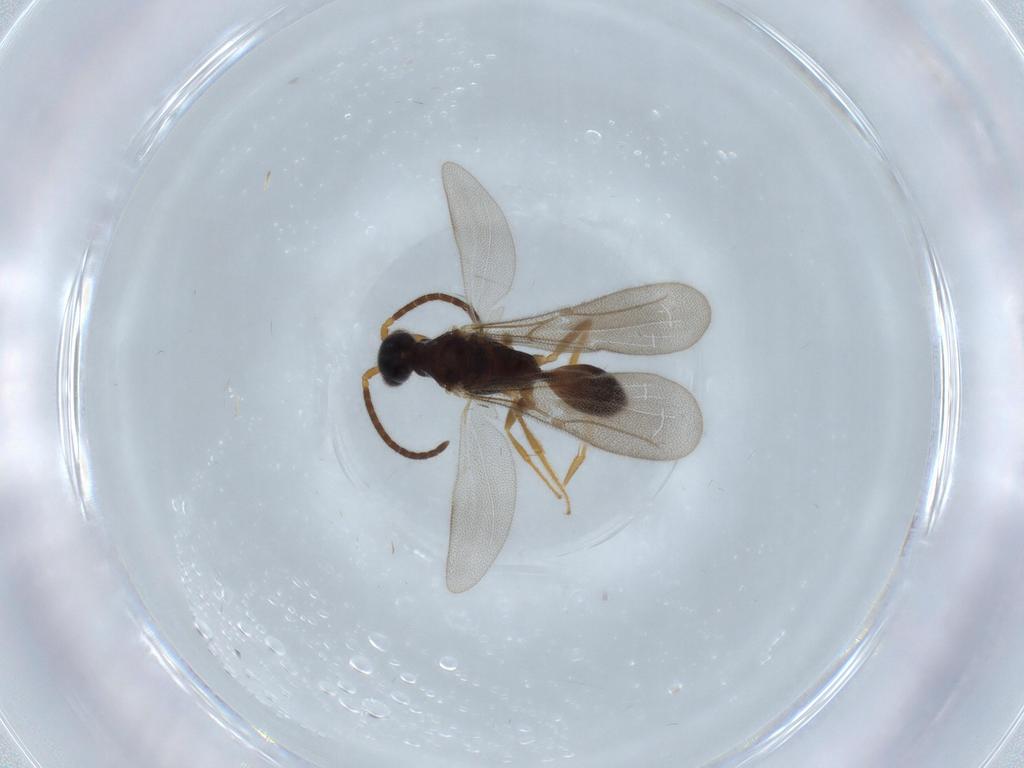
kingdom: Animalia
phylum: Arthropoda
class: Insecta
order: Hymenoptera
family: Bethylidae
